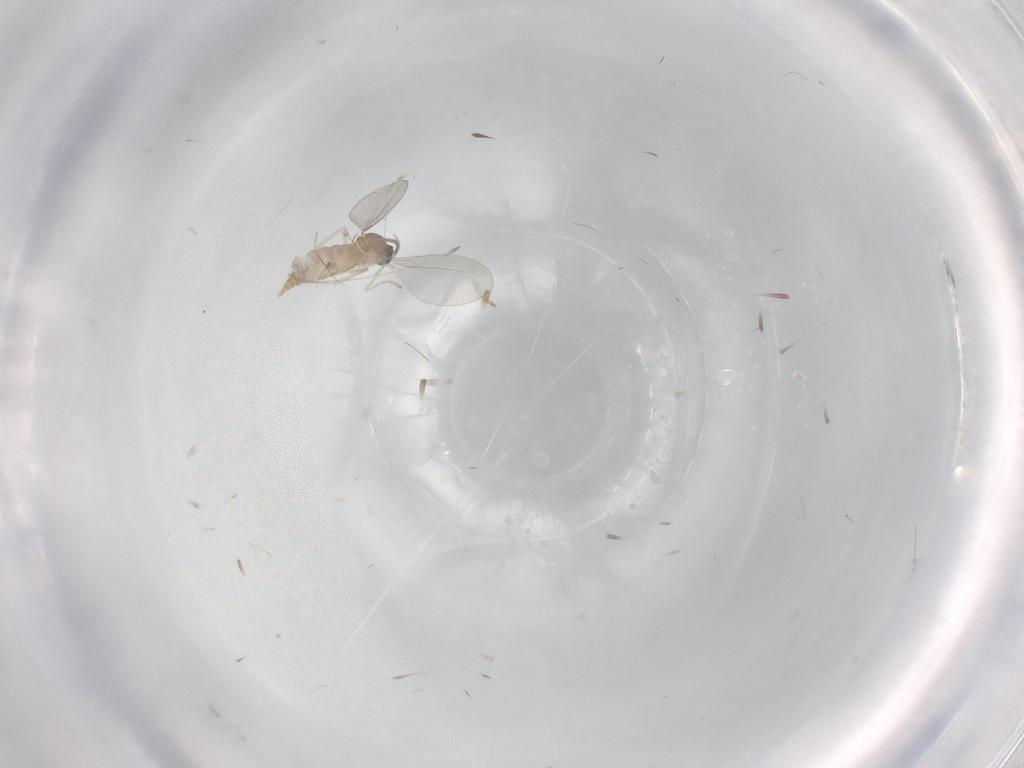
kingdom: Animalia
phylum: Arthropoda
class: Insecta
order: Diptera
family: Cecidomyiidae
